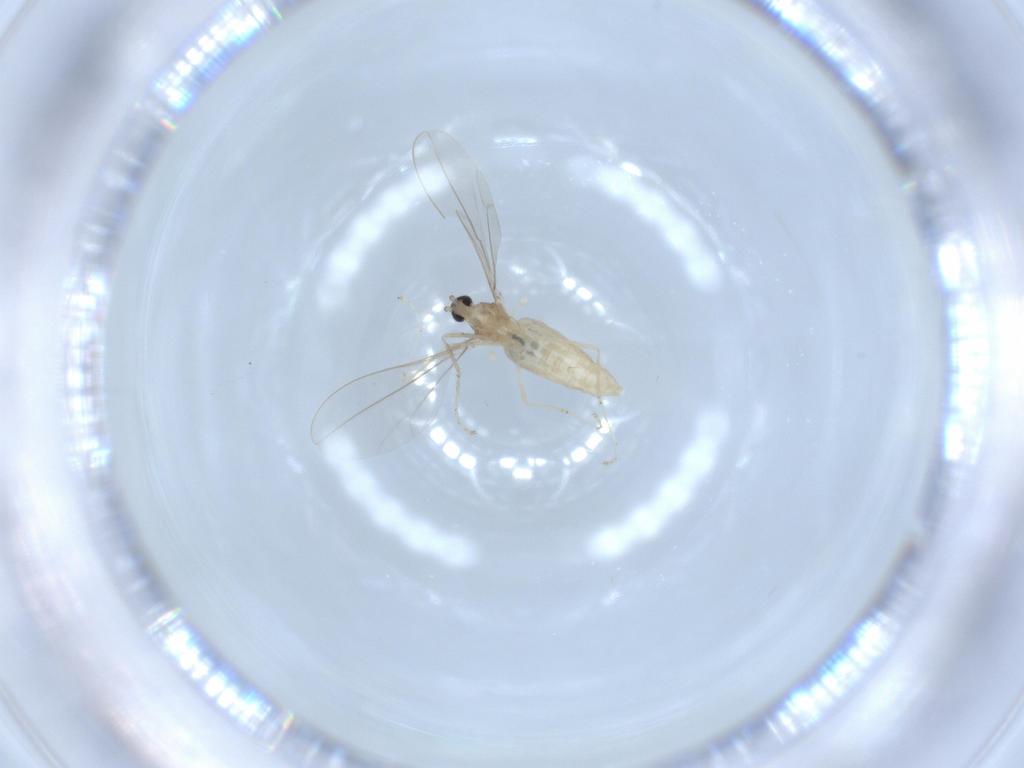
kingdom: Animalia
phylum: Arthropoda
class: Insecta
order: Diptera
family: Cecidomyiidae
